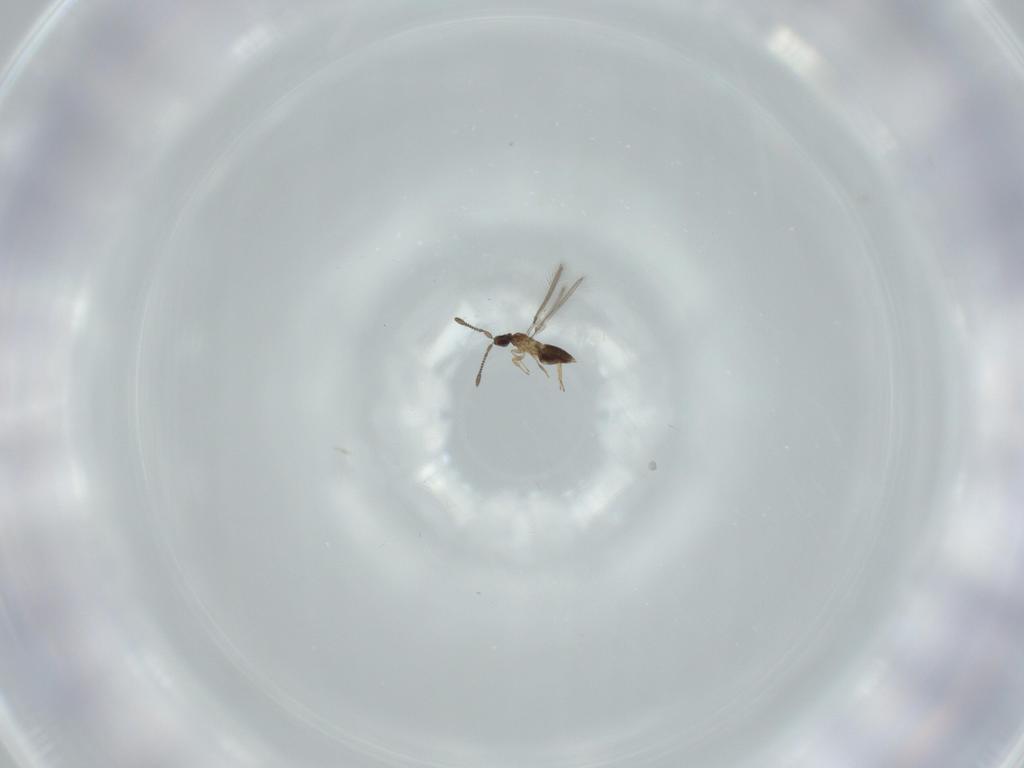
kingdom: Animalia
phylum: Arthropoda
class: Insecta
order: Hymenoptera
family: Mymaridae
